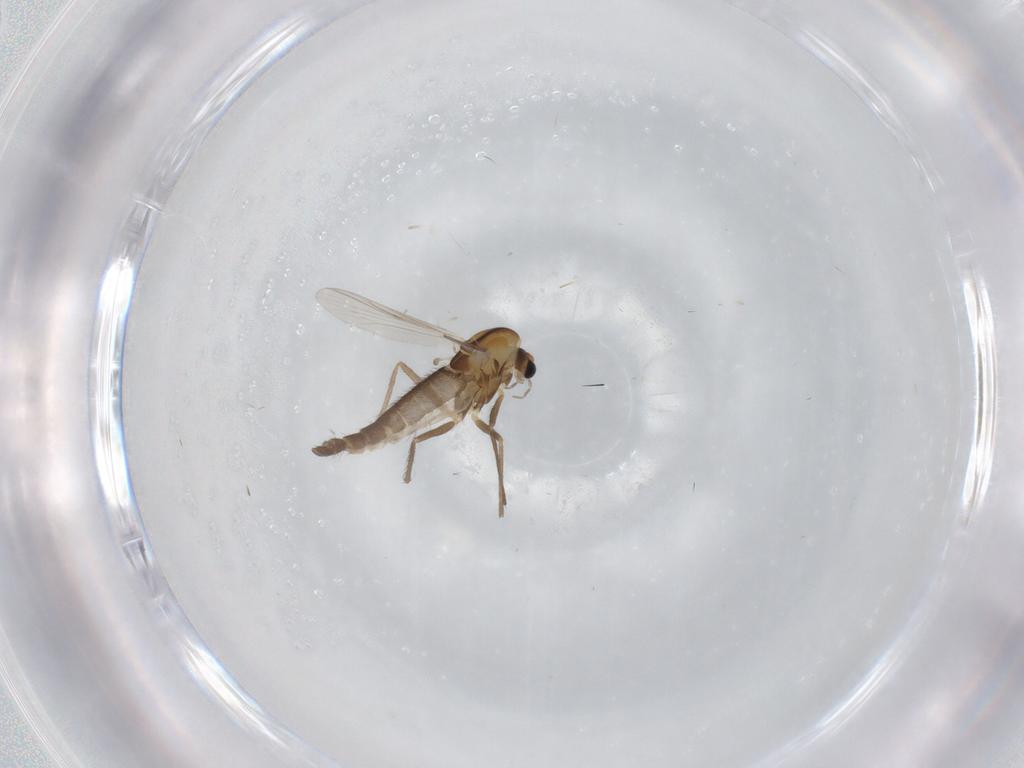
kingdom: Animalia
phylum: Arthropoda
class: Insecta
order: Diptera
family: Chironomidae
